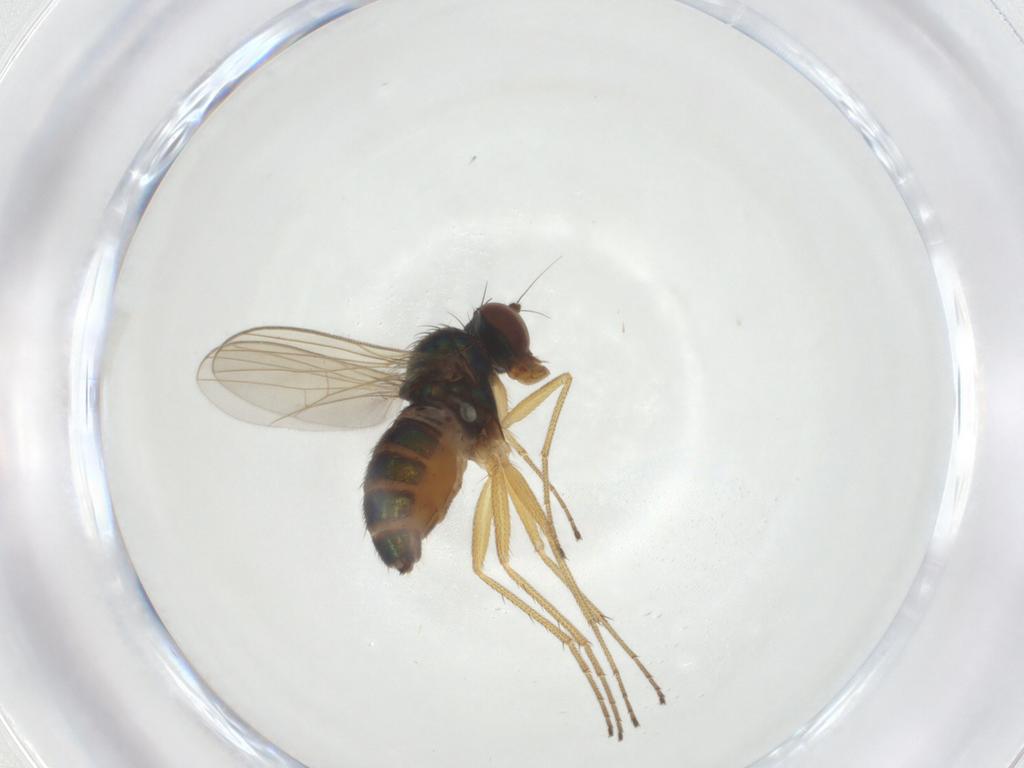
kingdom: Animalia
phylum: Arthropoda
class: Insecta
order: Diptera
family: Dolichopodidae
